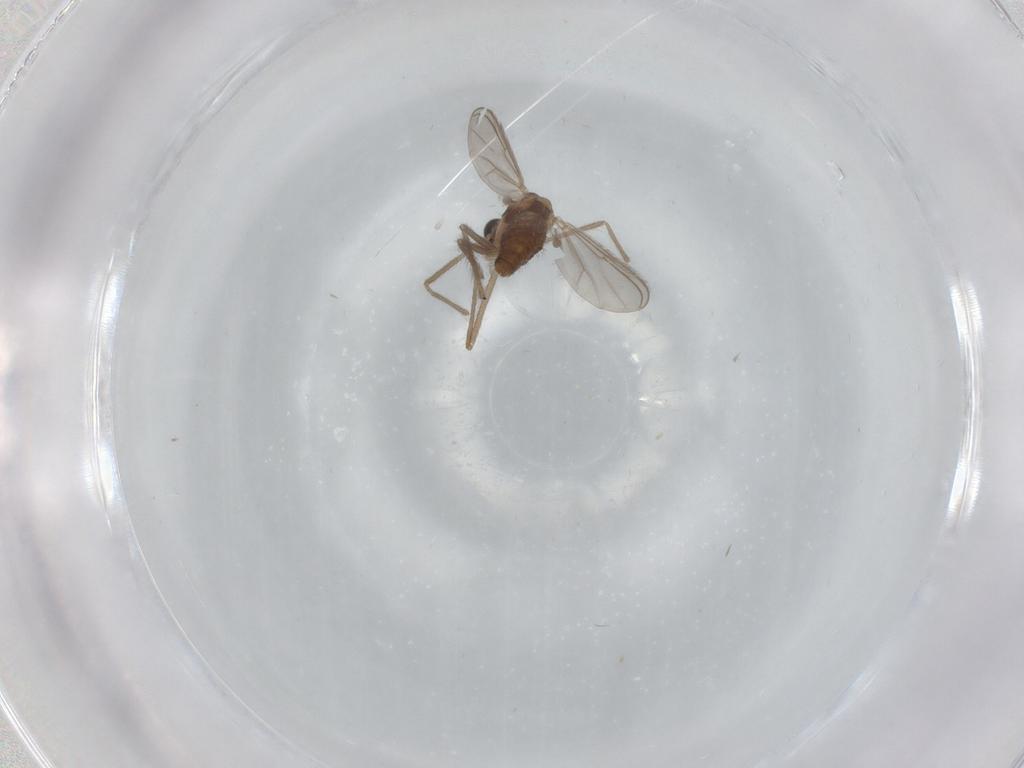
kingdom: Animalia
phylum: Arthropoda
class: Insecta
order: Diptera
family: Chironomidae
